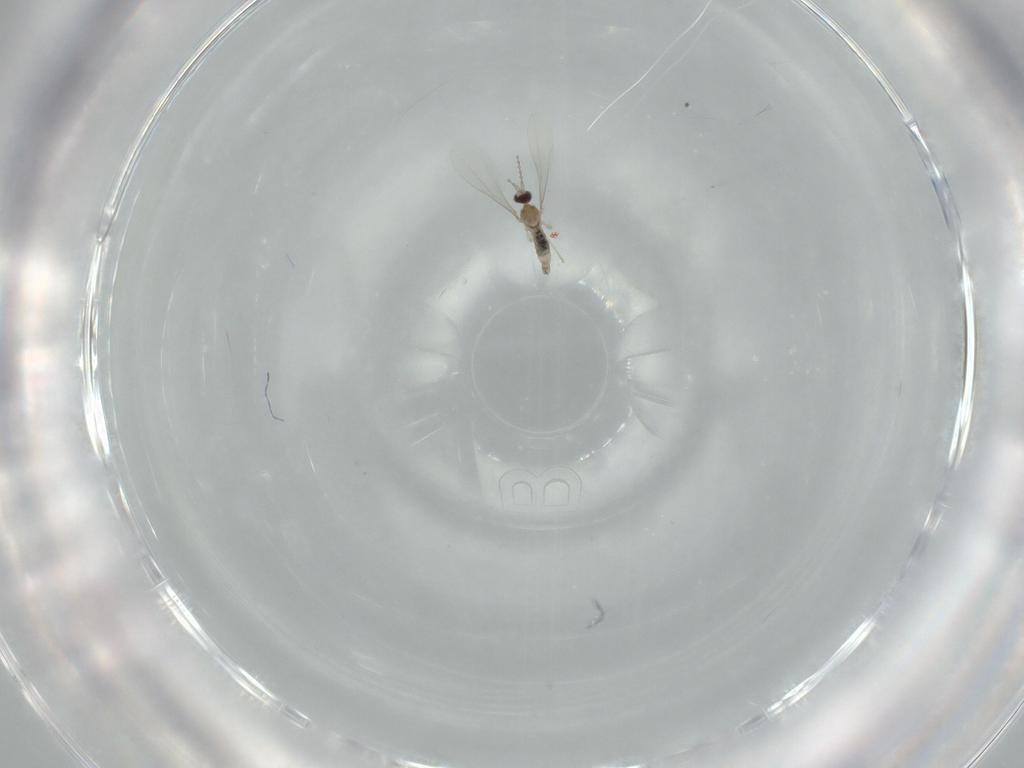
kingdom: Animalia
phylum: Arthropoda
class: Insecta
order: Diptera
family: Cecidomyiidae
